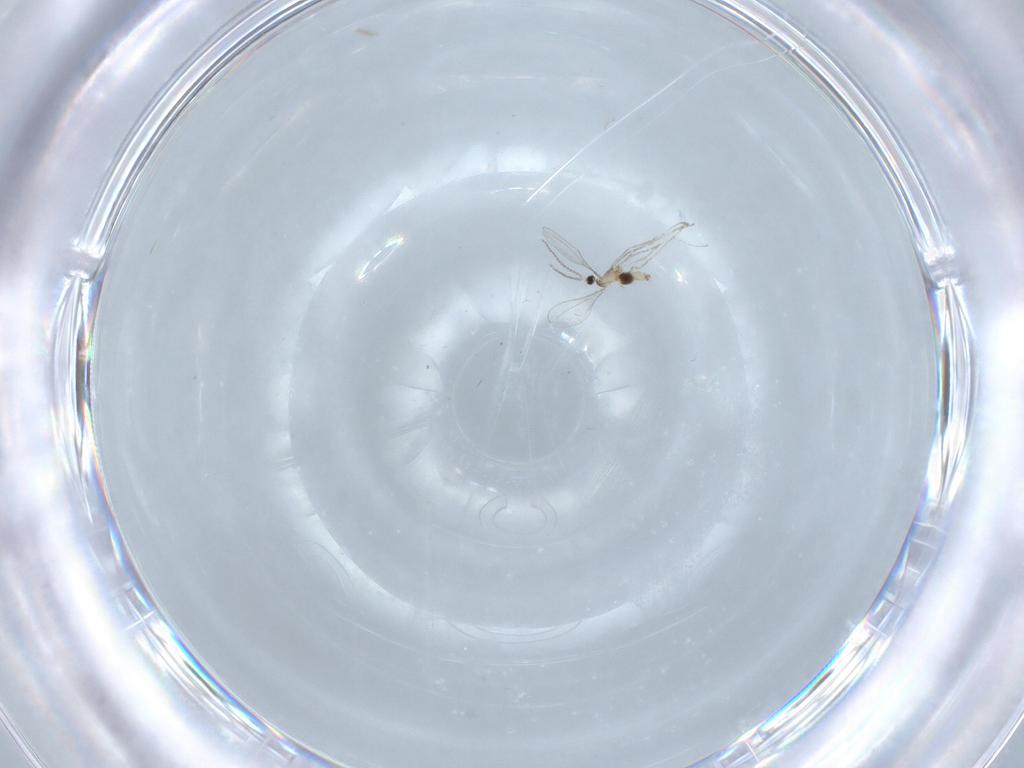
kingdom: Animalia
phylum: Arthropoda
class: Insecta
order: Diptera
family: Cecidomyiidae
